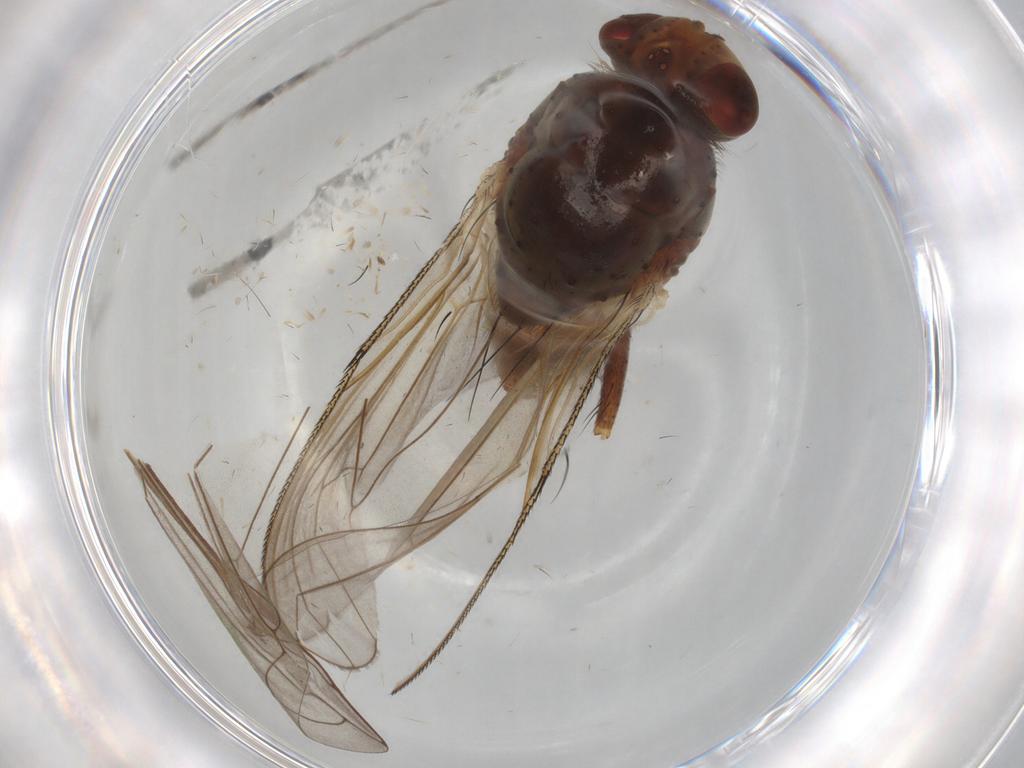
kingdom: Animalia
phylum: Arthropoda
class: Insecta
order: Diptera
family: Anthomyiidae
